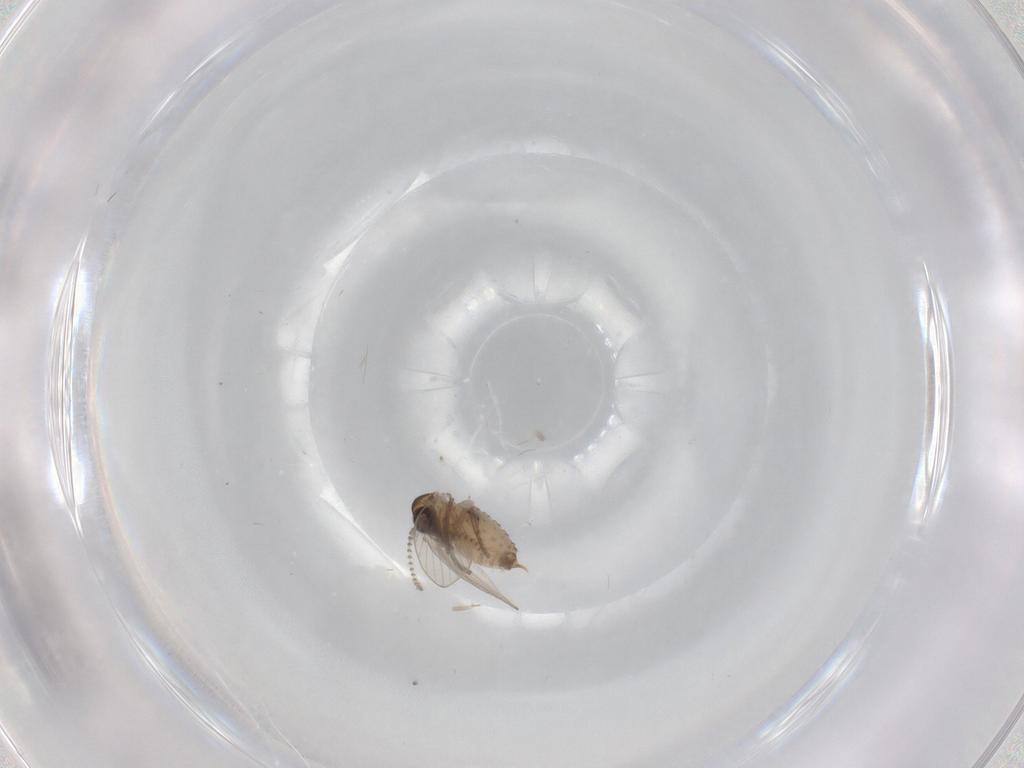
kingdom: Animalia
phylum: Arthropoda
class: Insecta
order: Diptera
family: Psychodidae
